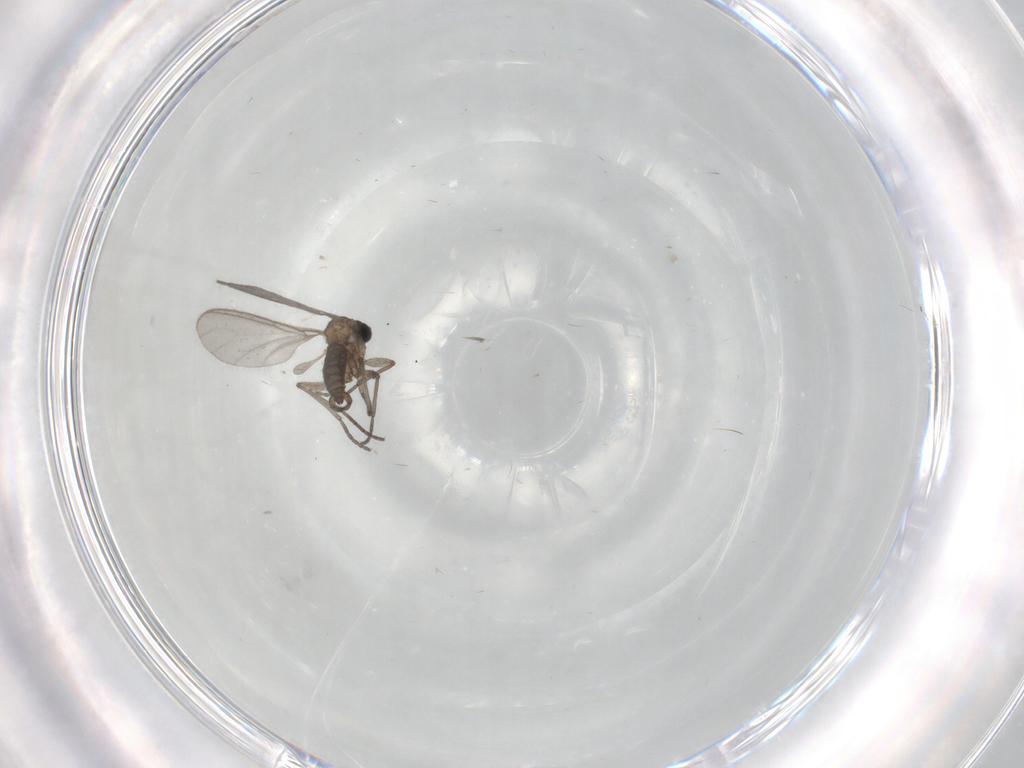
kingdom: Animalia
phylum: Arthropoda
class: Insecta
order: Diptera
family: Sciaridae
